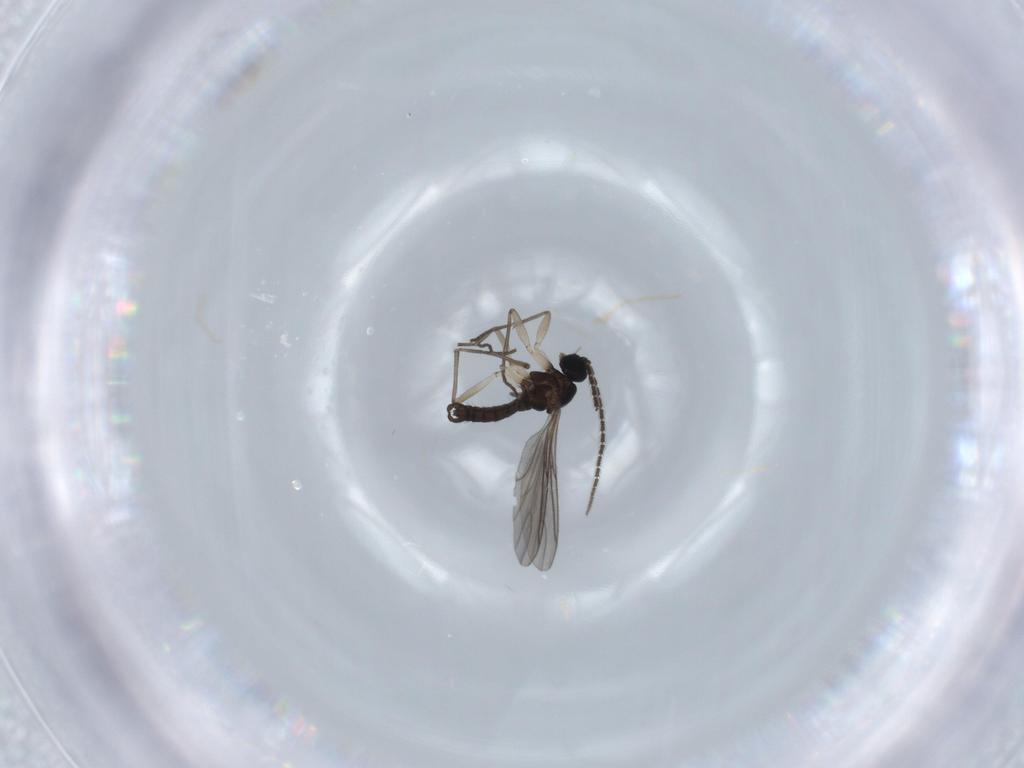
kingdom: Animalia
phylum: Arthropoda
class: Insecta
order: Diptera
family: Sciaridae
